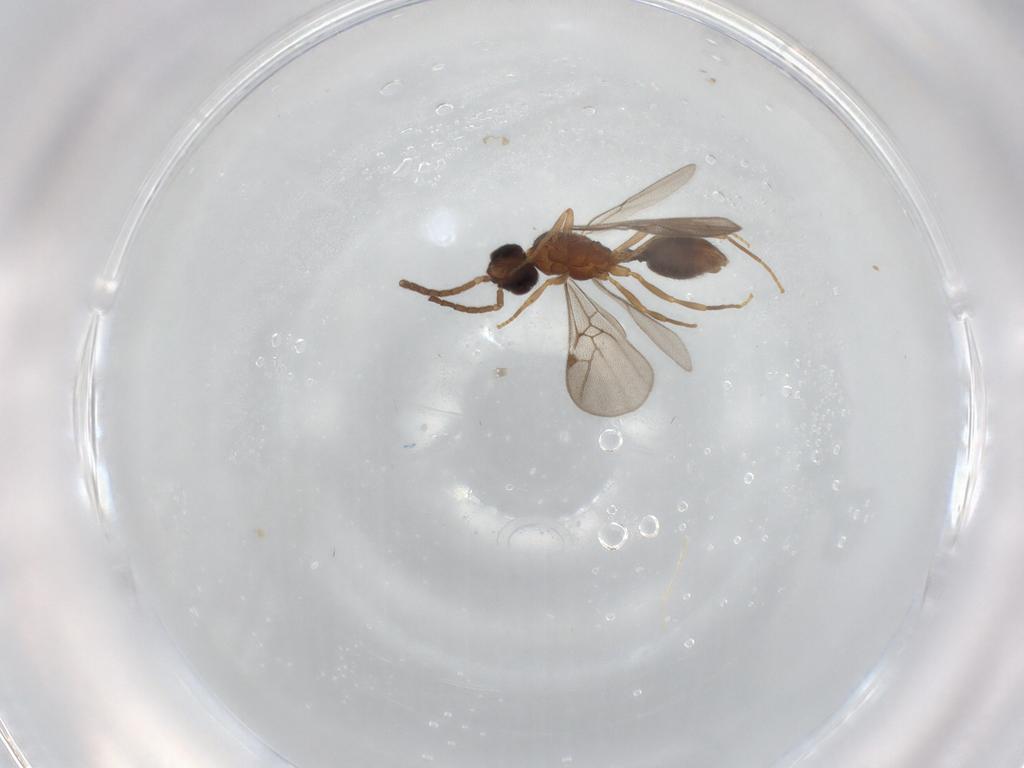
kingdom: Animalia
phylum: Arthropoda
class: Insecta
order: Hymenoptera
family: Formicidae
